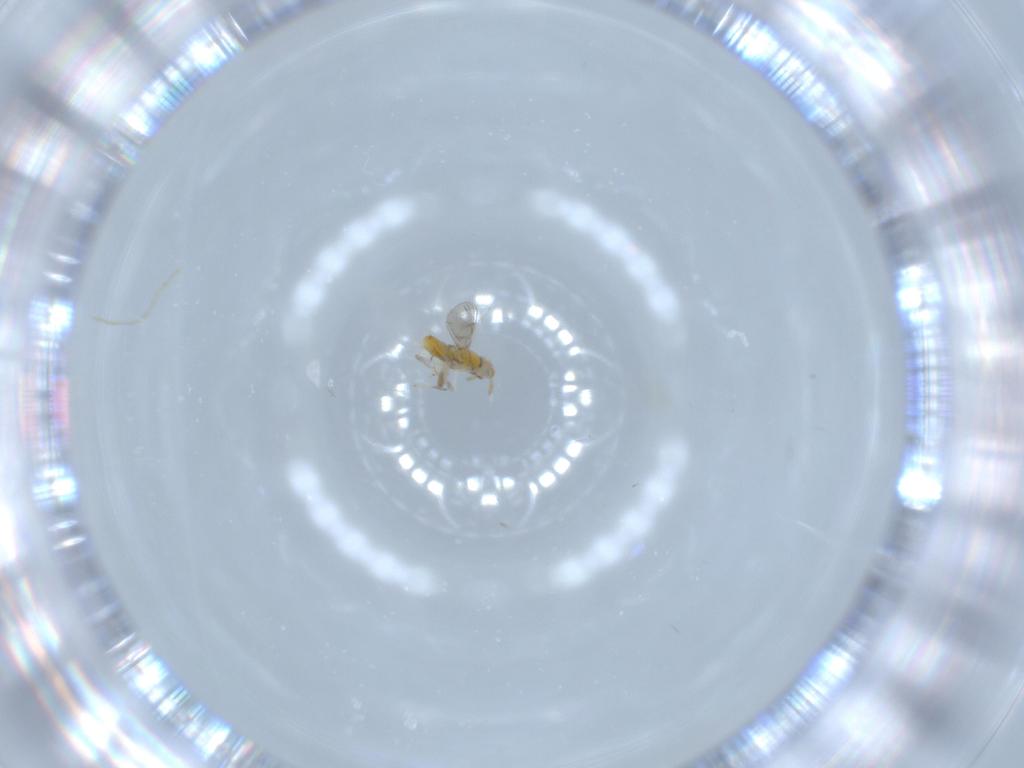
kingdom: Animalia
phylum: Arthropoda
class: Insecta
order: Hymenoptera
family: Aphelinidae
